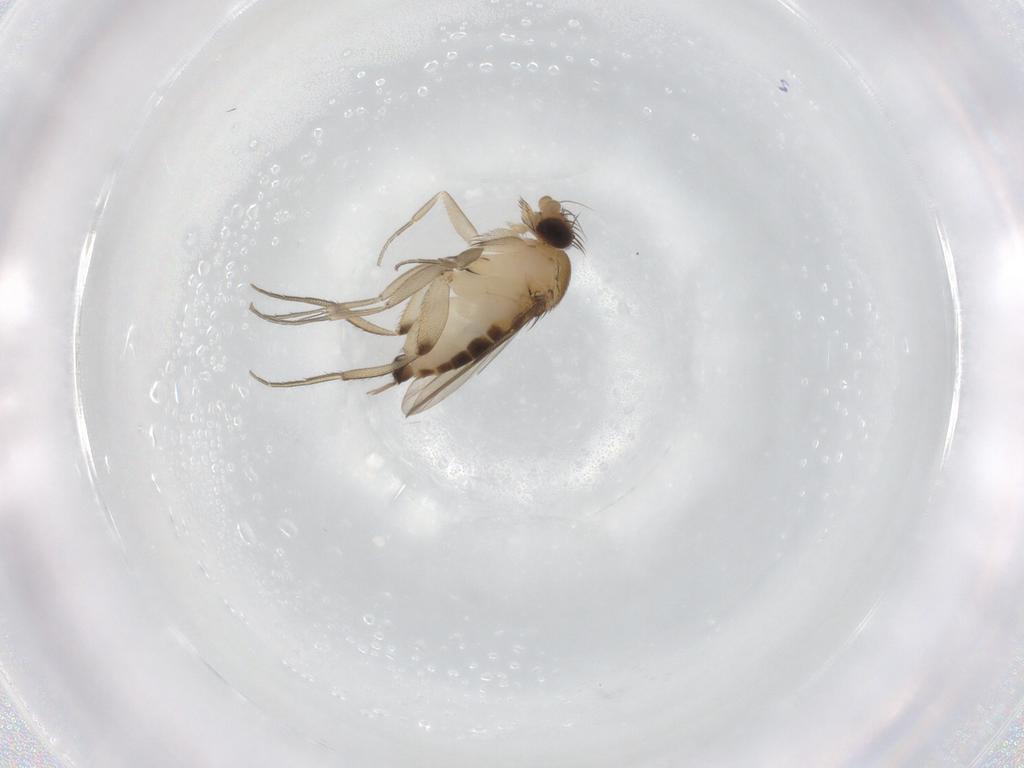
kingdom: Animalia
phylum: Arthropoda
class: Insecta
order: Diptera
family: Phoridae
